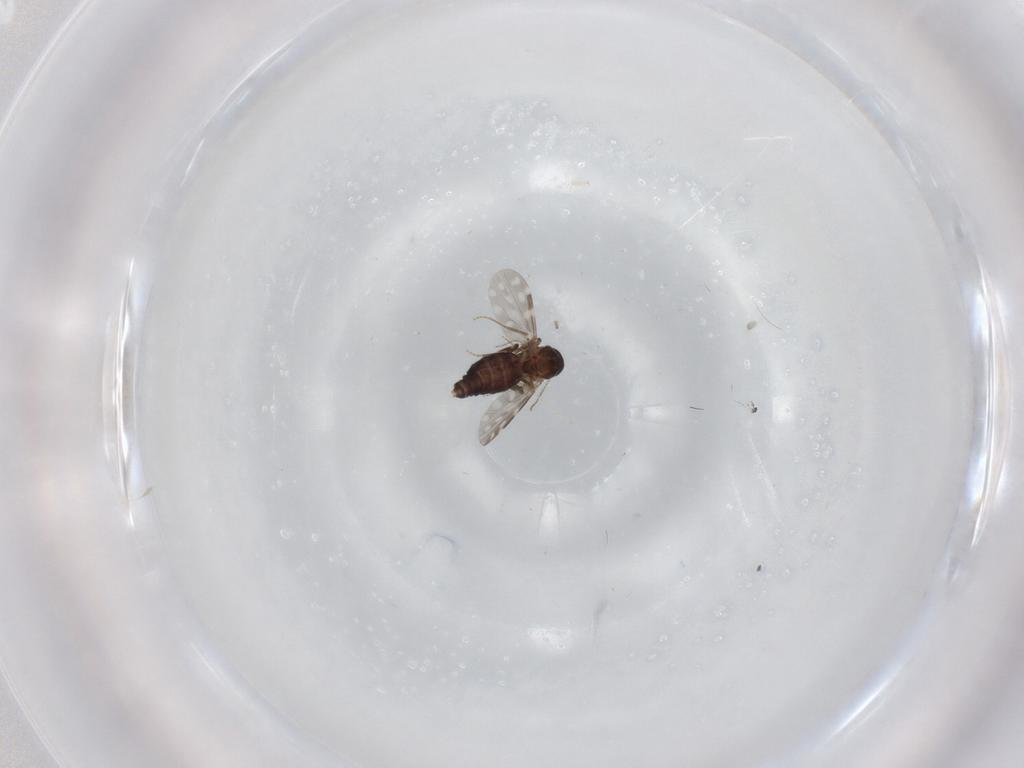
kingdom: Animalia
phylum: Arthropoda
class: Insecta
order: Diptera
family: Ceratopogonidae
